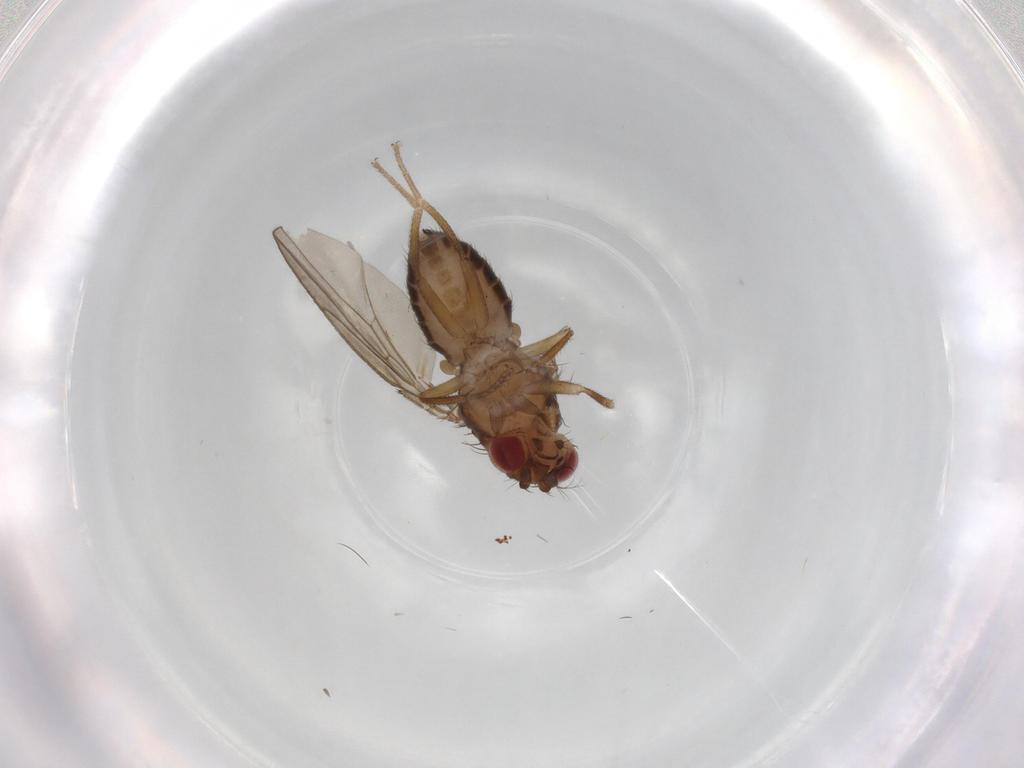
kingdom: Animalia
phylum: Arthropoda
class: Insecta
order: Diptera
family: Drosophilidae
